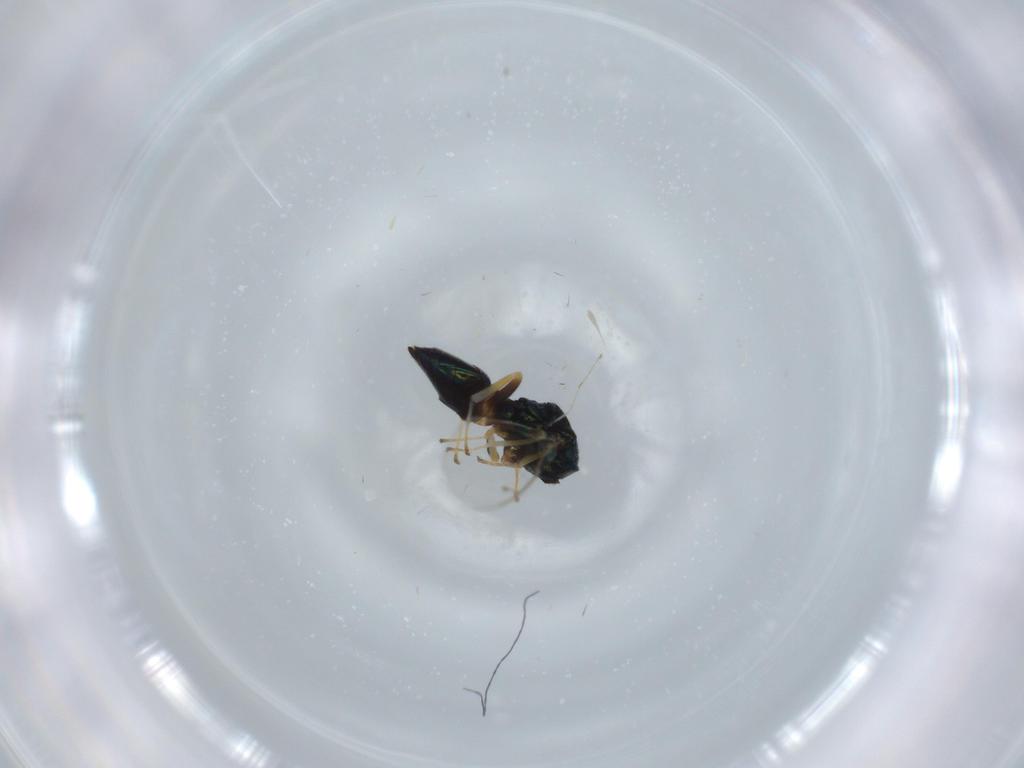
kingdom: Animalia
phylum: Arthropoda
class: Insecta
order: Hymenoptera
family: Eupelmidae
